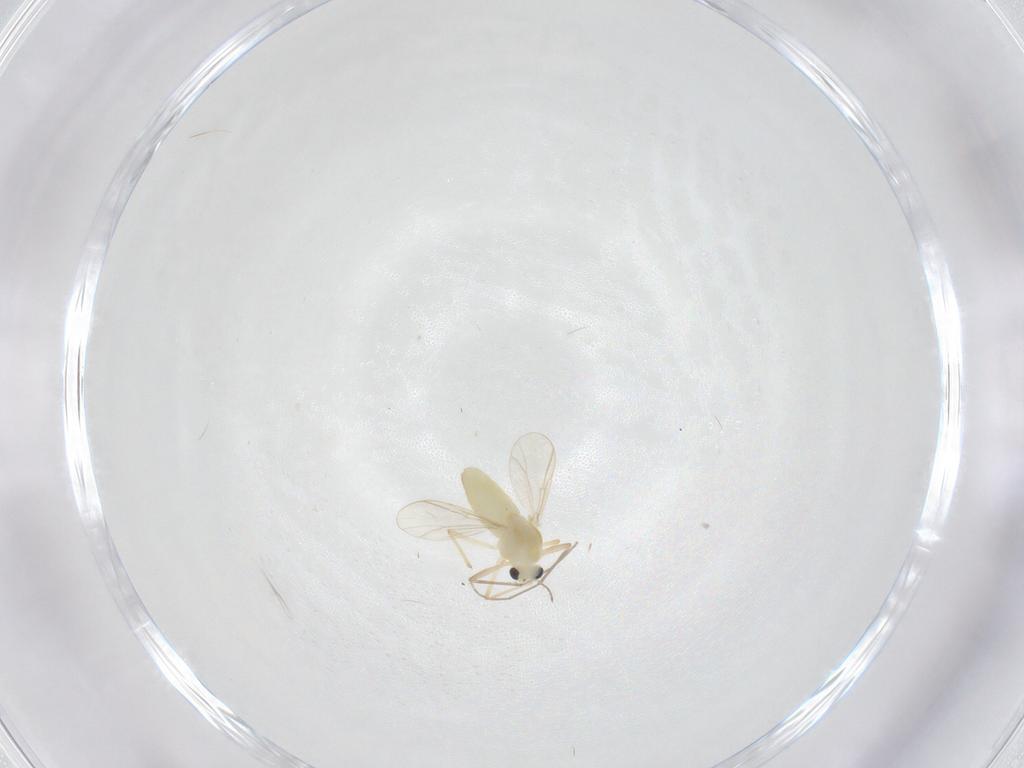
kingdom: Animalia
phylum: Arthropoda
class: Insecta
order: Diptera
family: Chironomidae
